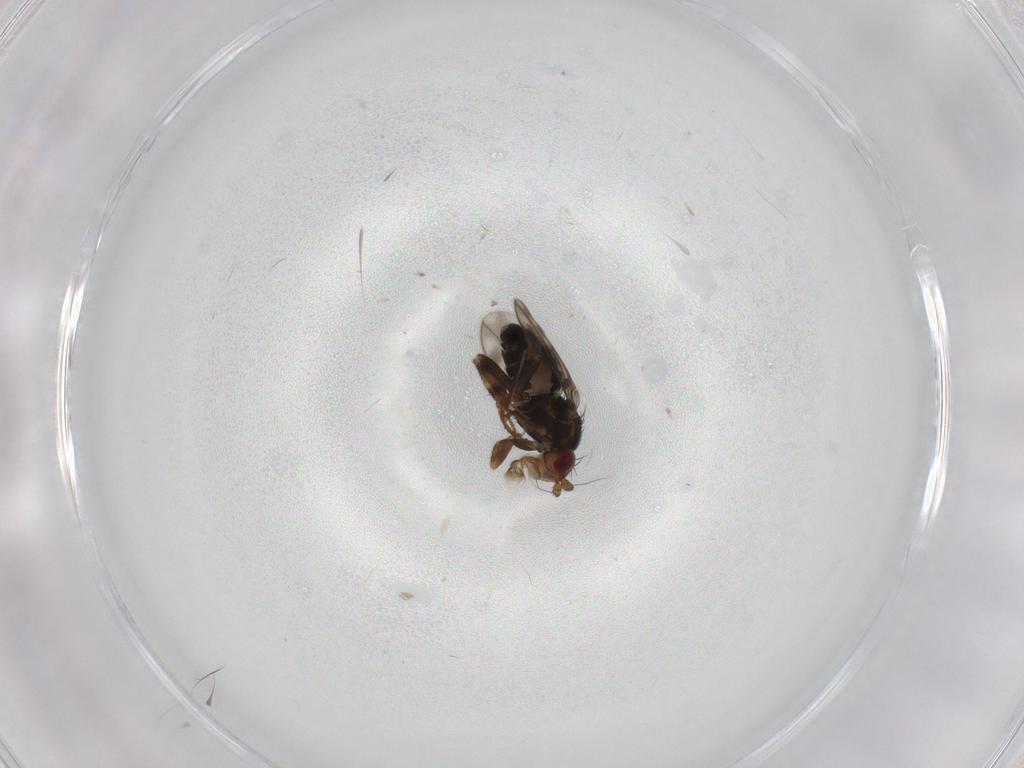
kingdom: Animalia
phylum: Arthropoda
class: Insecta
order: Diptera
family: Sphaeroceridae
